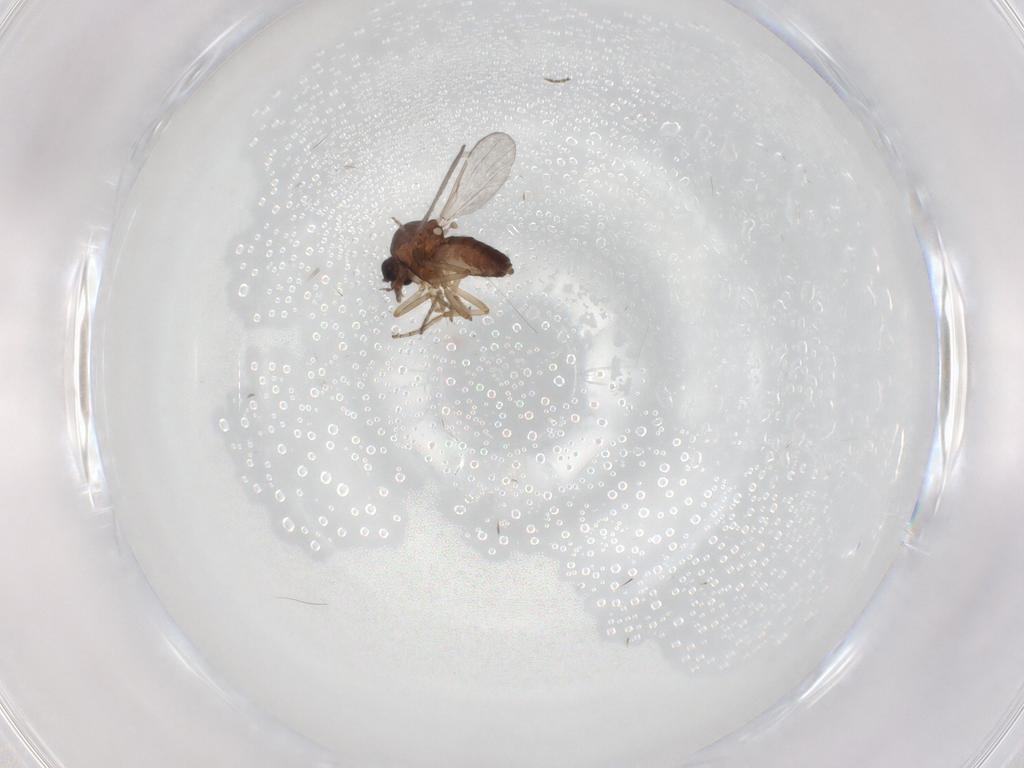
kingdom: Animalia
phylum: Arthropoda
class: Insecta
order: Diptera
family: Ceratopogonidae
